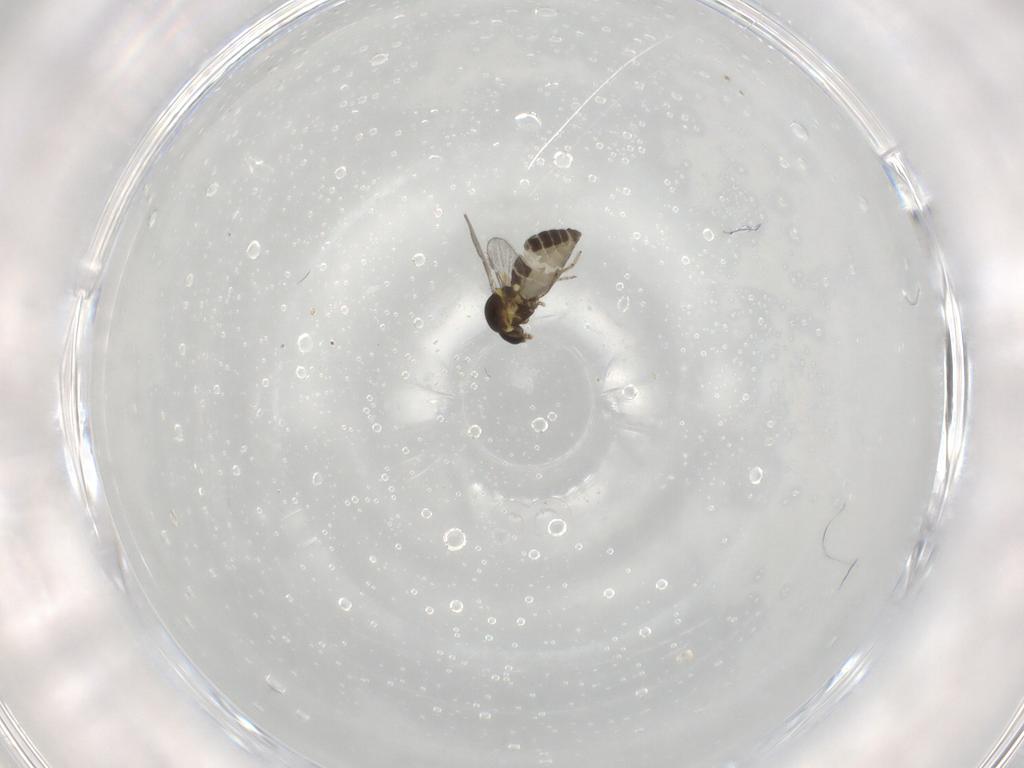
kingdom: Animalia
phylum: Arthropoda
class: Insecta
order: Diptera
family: Ceratopogonidae
